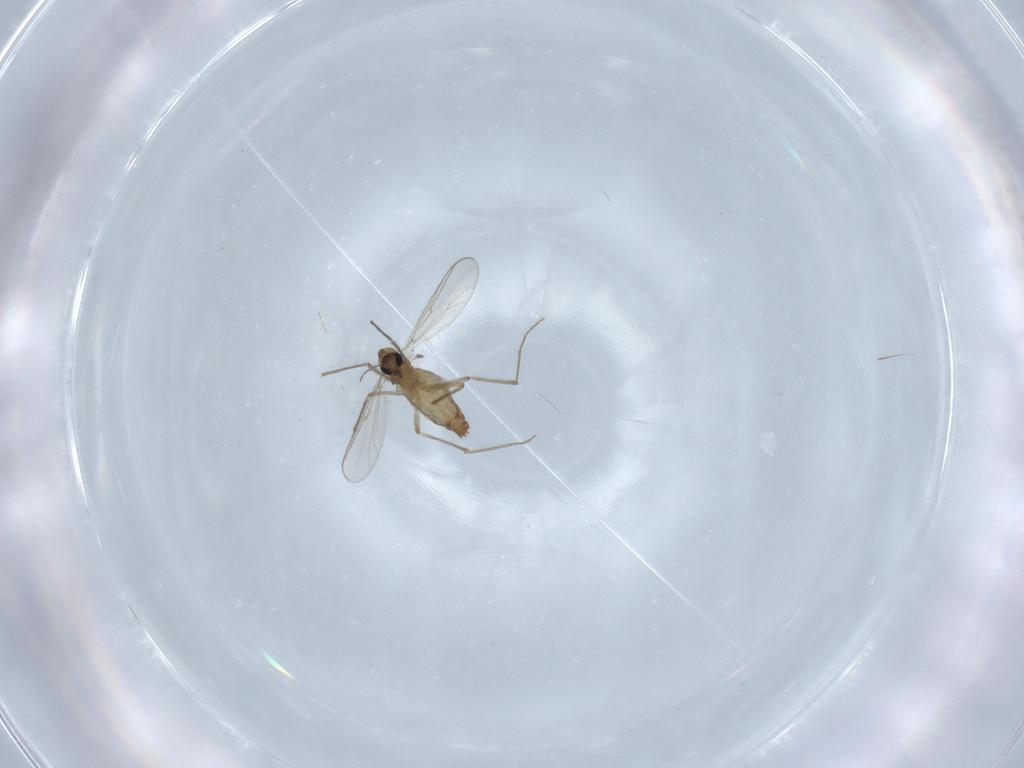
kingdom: Animalia
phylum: Arthropoda
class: Insecta
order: Diptera
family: Chironomidae
